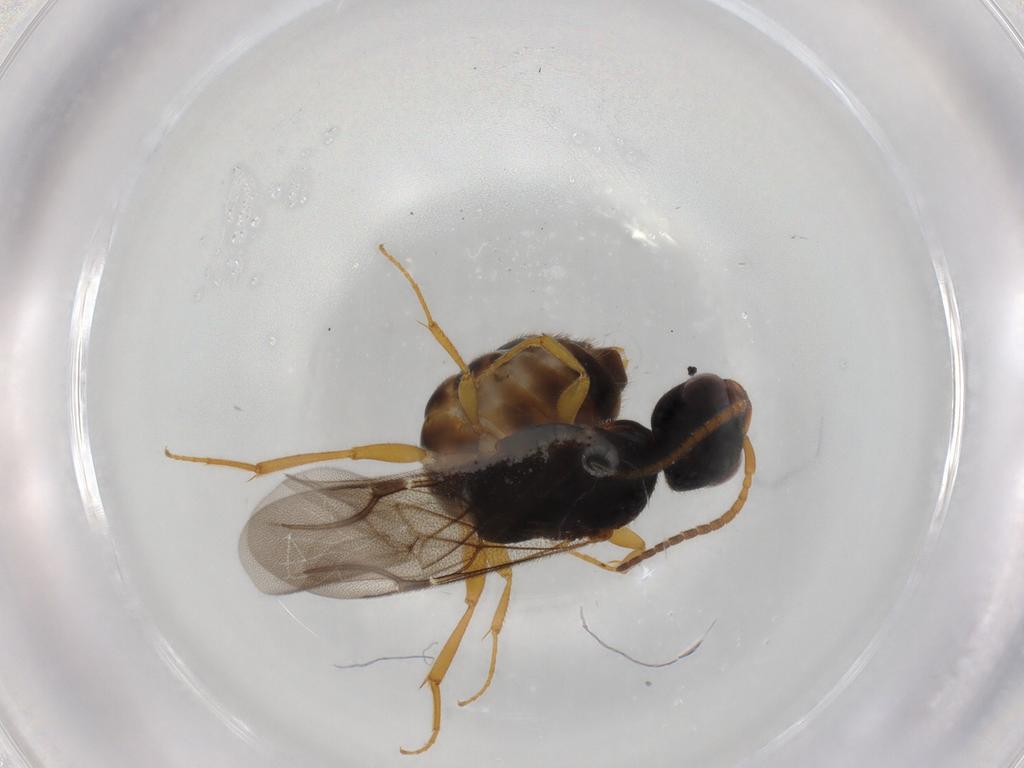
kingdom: Animalia
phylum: Arthropoda
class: Insecta
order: Hymenoptera
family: Bethylidae
